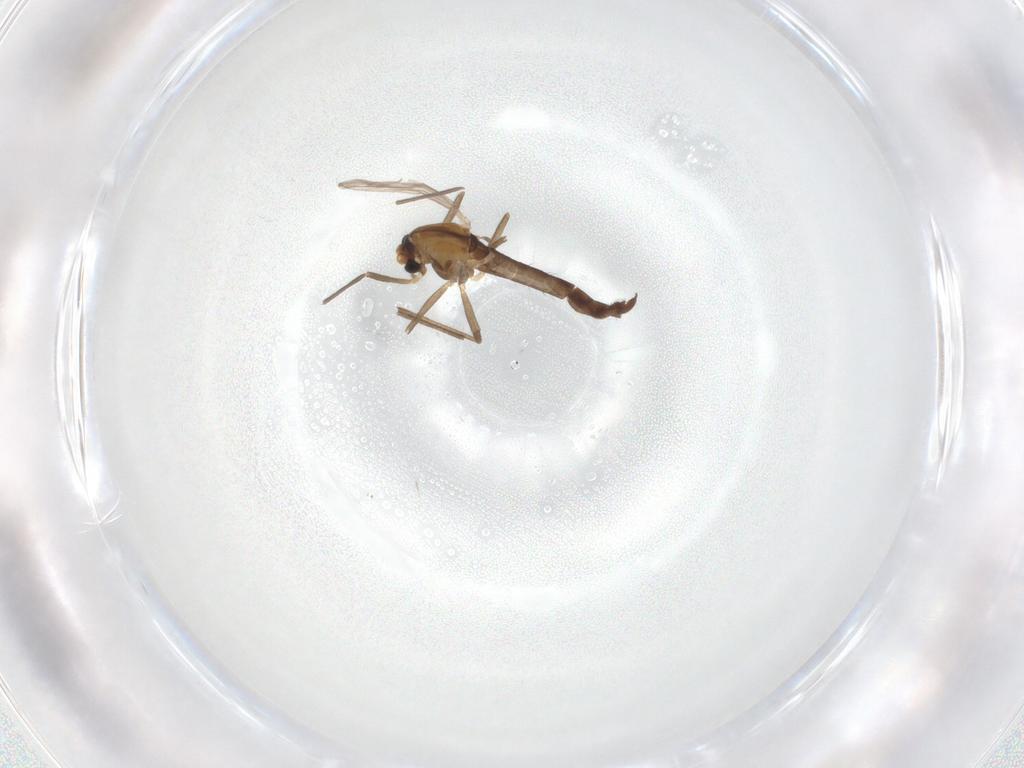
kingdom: Animalia
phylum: Arthropoda
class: Insecta
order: Diptera
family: Chironomidae
